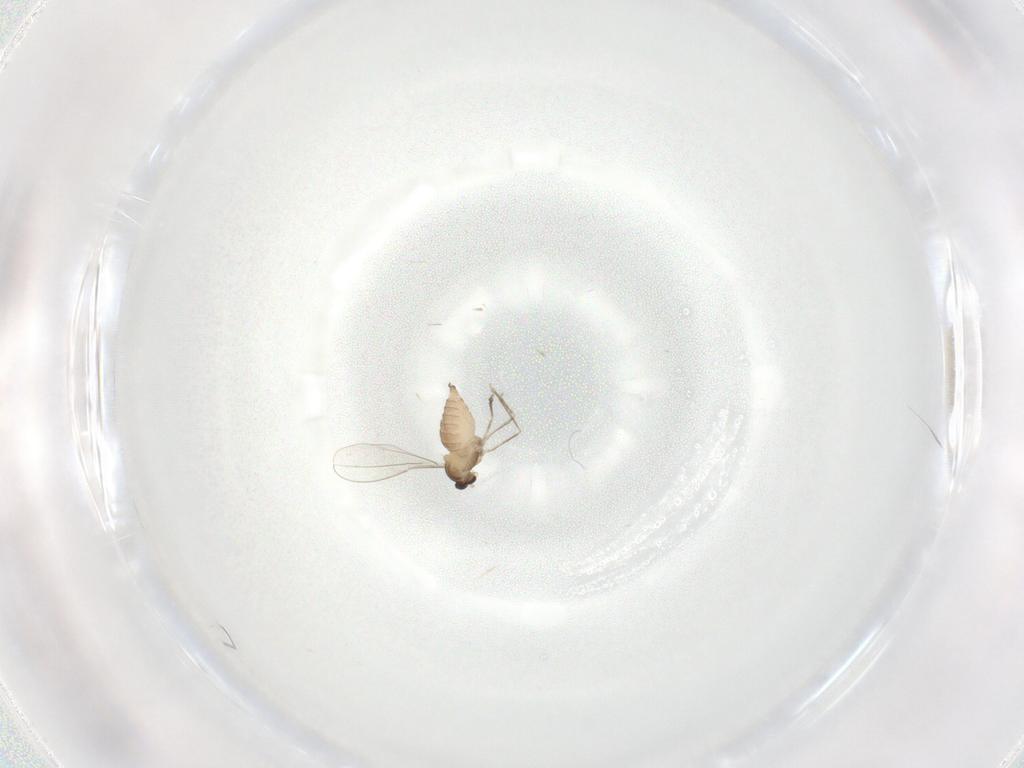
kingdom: Animalia
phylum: Arthropoda
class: Insecta
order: Diptera
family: Cecidomyiidae
